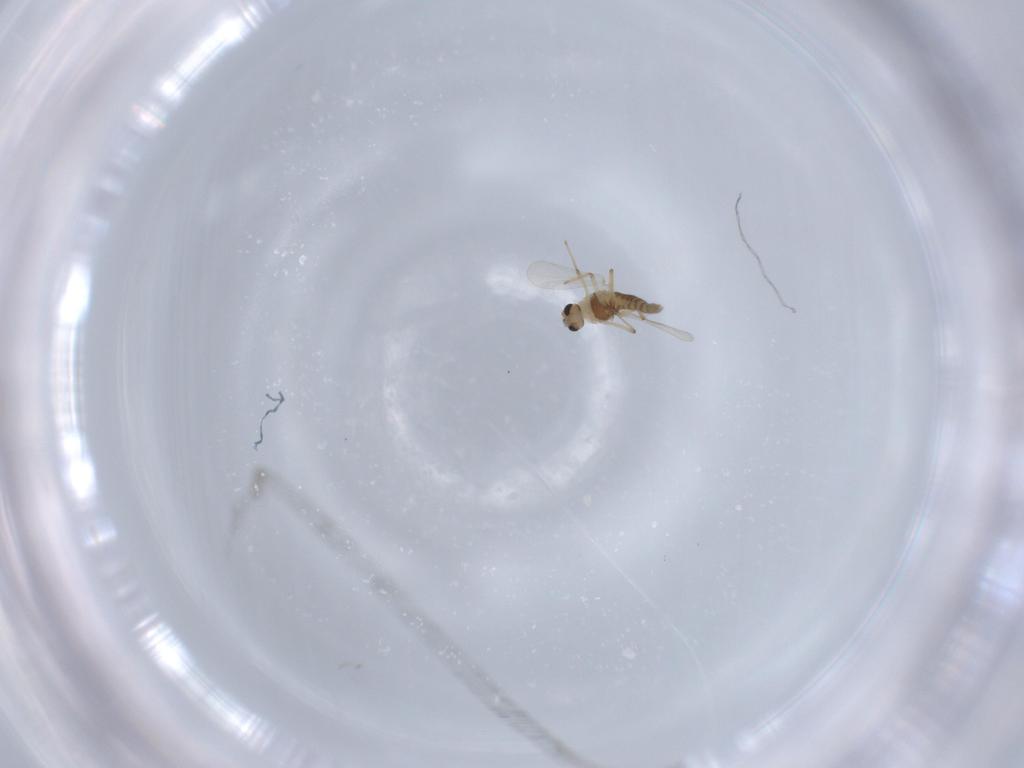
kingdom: Animalia
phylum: Arthropoda
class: Insecta
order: Diptera
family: Chironomidae
